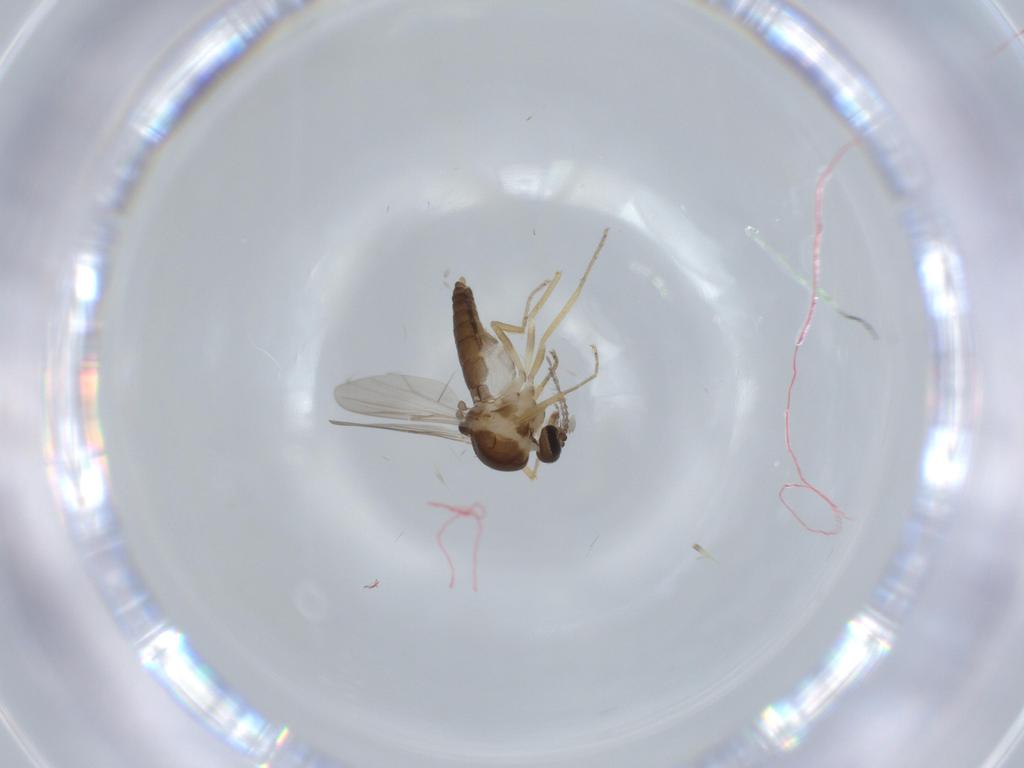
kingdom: Animalia
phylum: Arthropoda
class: Insecta
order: Diptera
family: Ceratopogonidae
